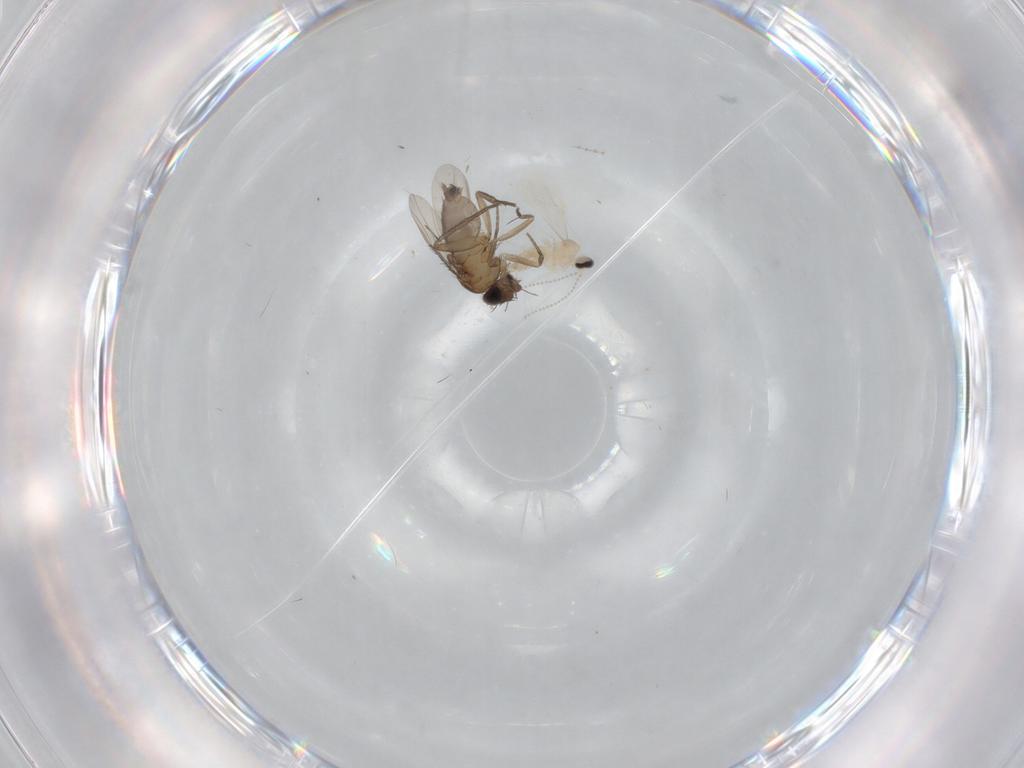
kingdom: Animalia
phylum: Arthropoda
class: Insecta
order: Diptera
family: Cecidomyiidae
